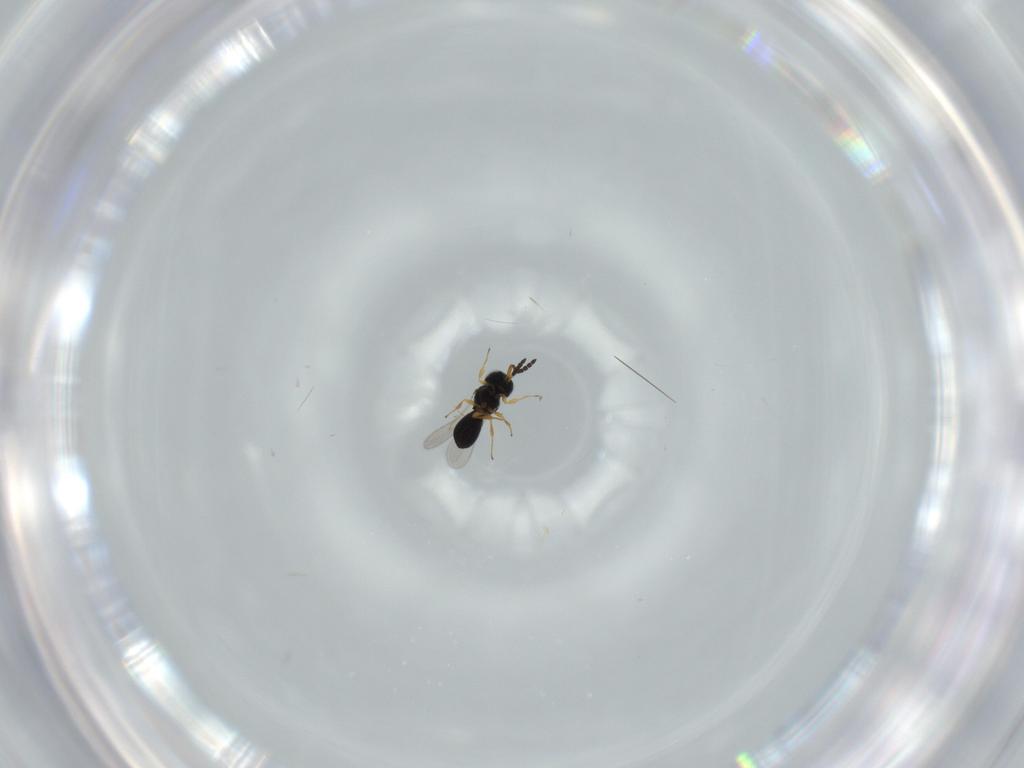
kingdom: Animalia
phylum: Arthropoda
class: Insecta
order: Hymenoptera
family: Scelionidae
